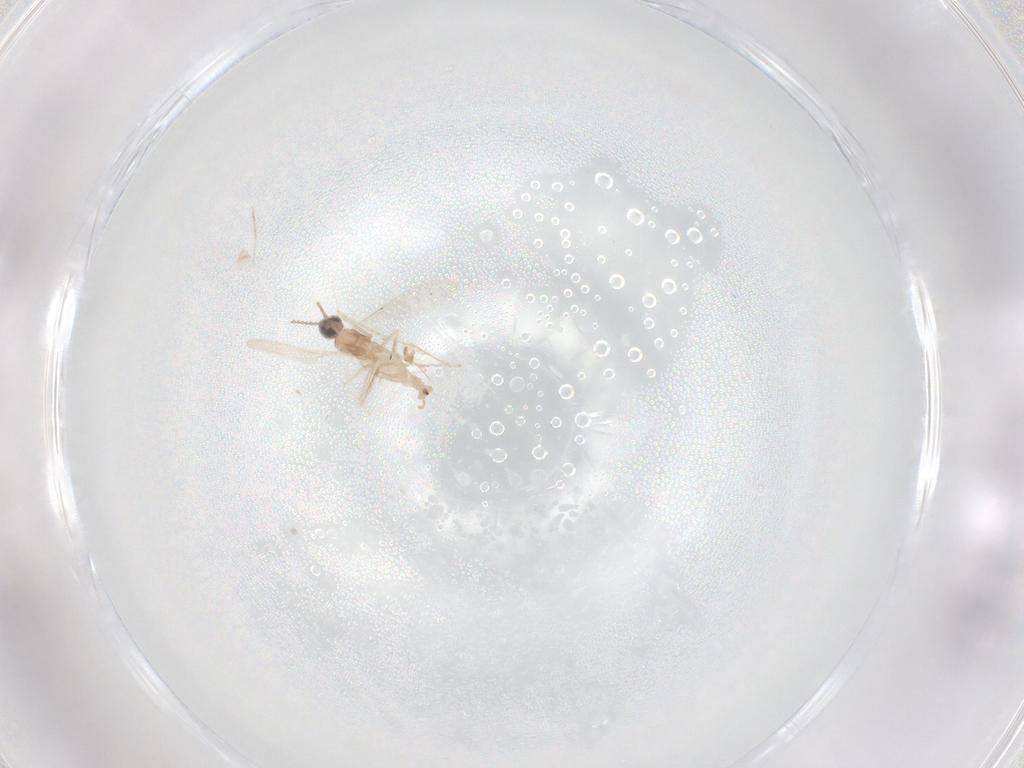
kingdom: Animalia
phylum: Arthropoda
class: Insecta
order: Diptera
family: Cecidomyiidae
